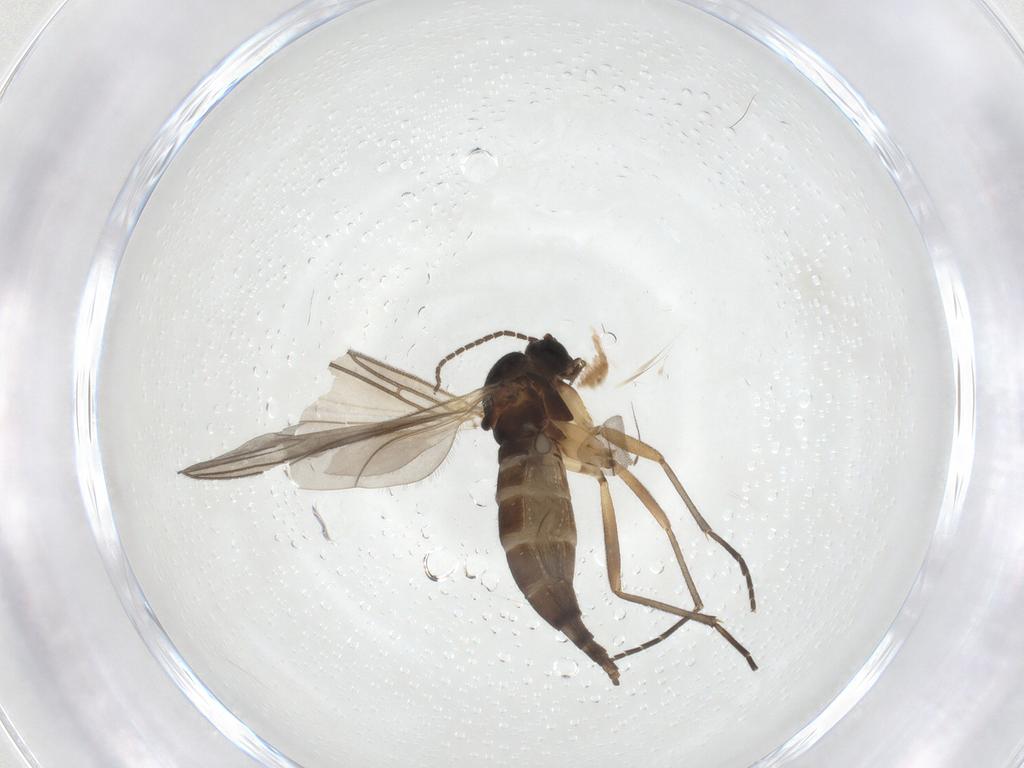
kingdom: Animalia
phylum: Arthropoda
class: Insecta
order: Diptera
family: Sciaridae
